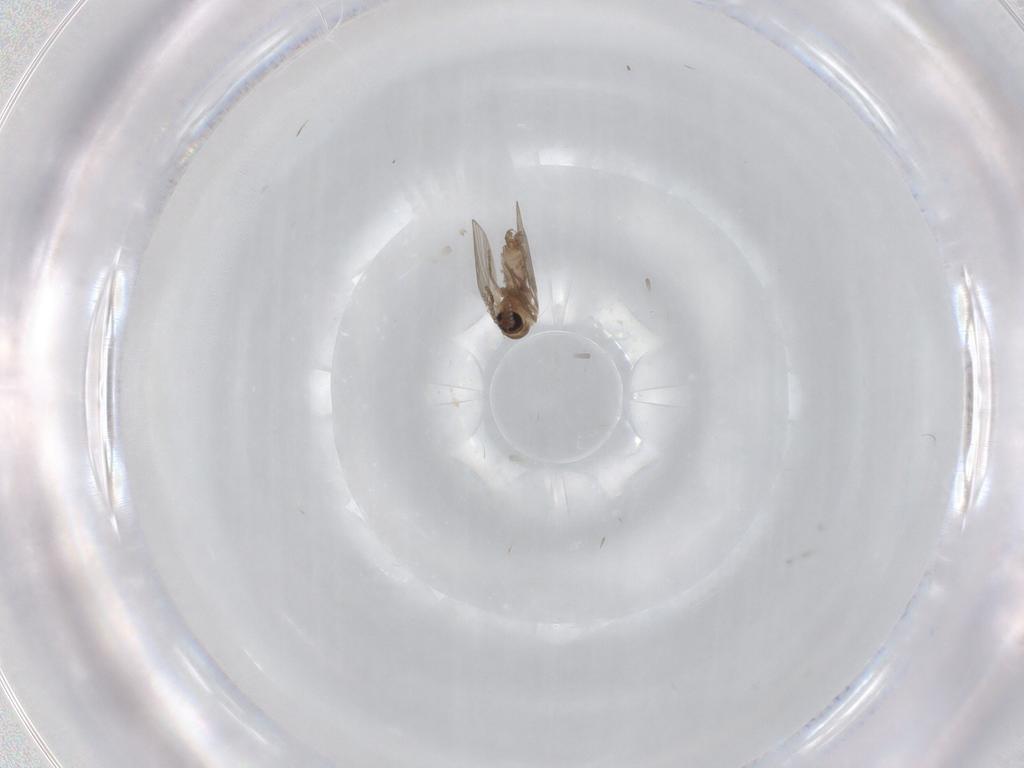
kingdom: Animalia
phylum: Arthropoda
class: Insecta
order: Diptera
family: Psychodidae
